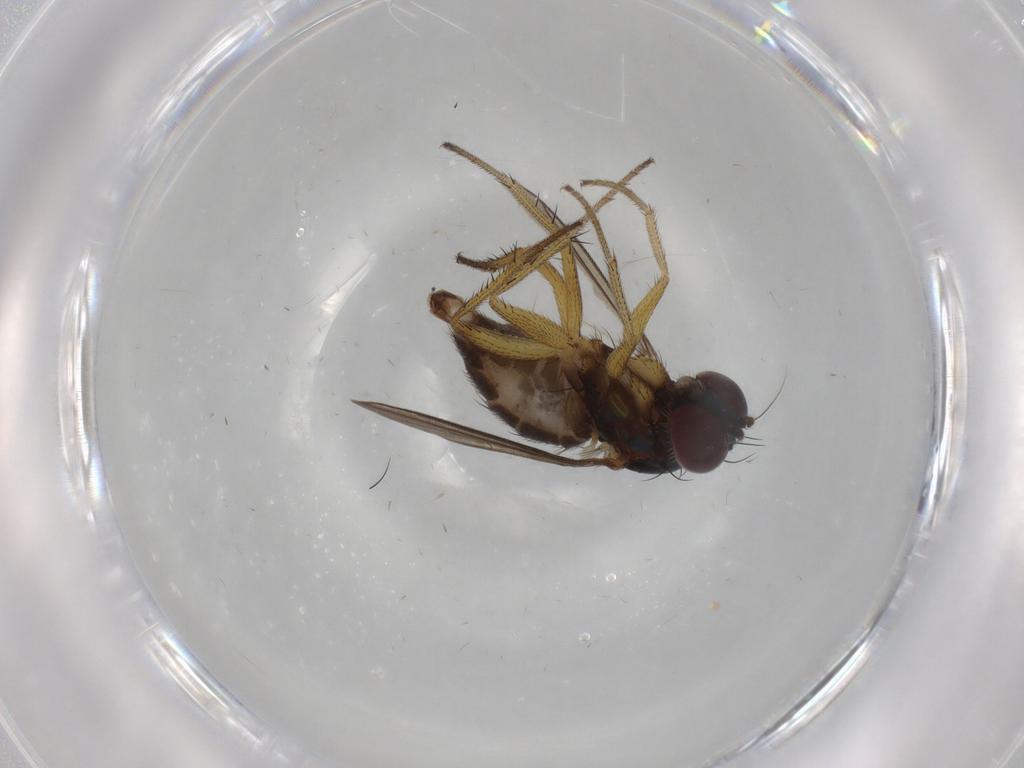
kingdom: Animalia
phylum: Arthropoda
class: Insecta
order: Diptera
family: Dolichopodidae
